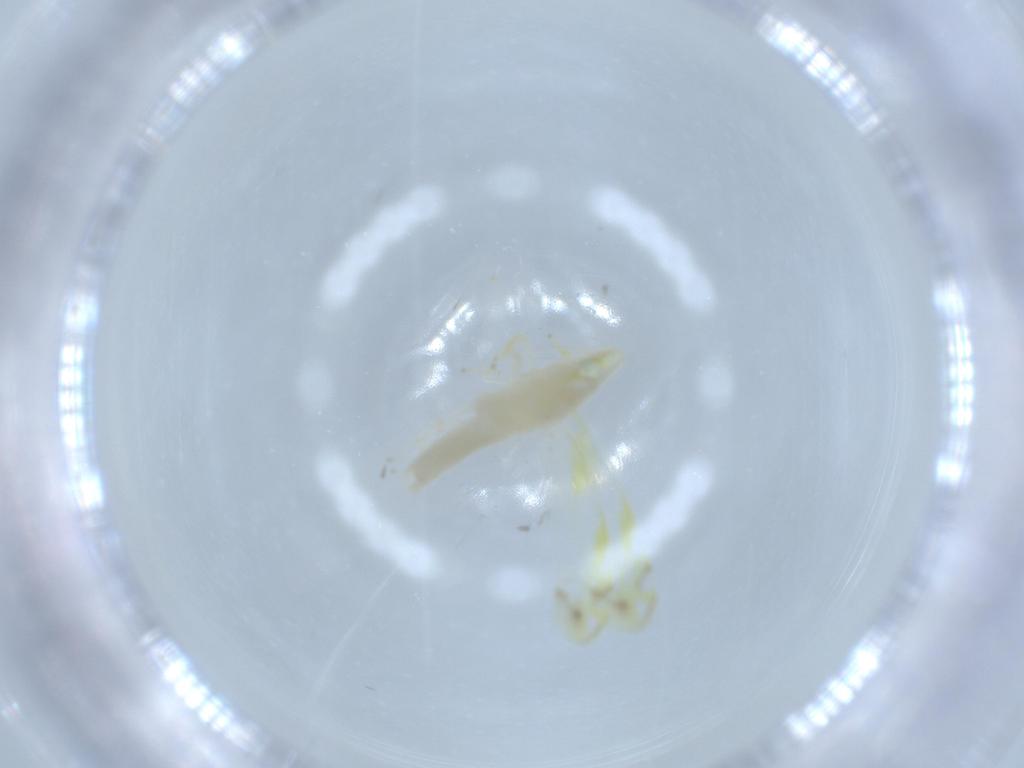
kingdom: Animalia
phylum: Arthropoda
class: Insecta
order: Hemiptera
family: Cicadellidae
